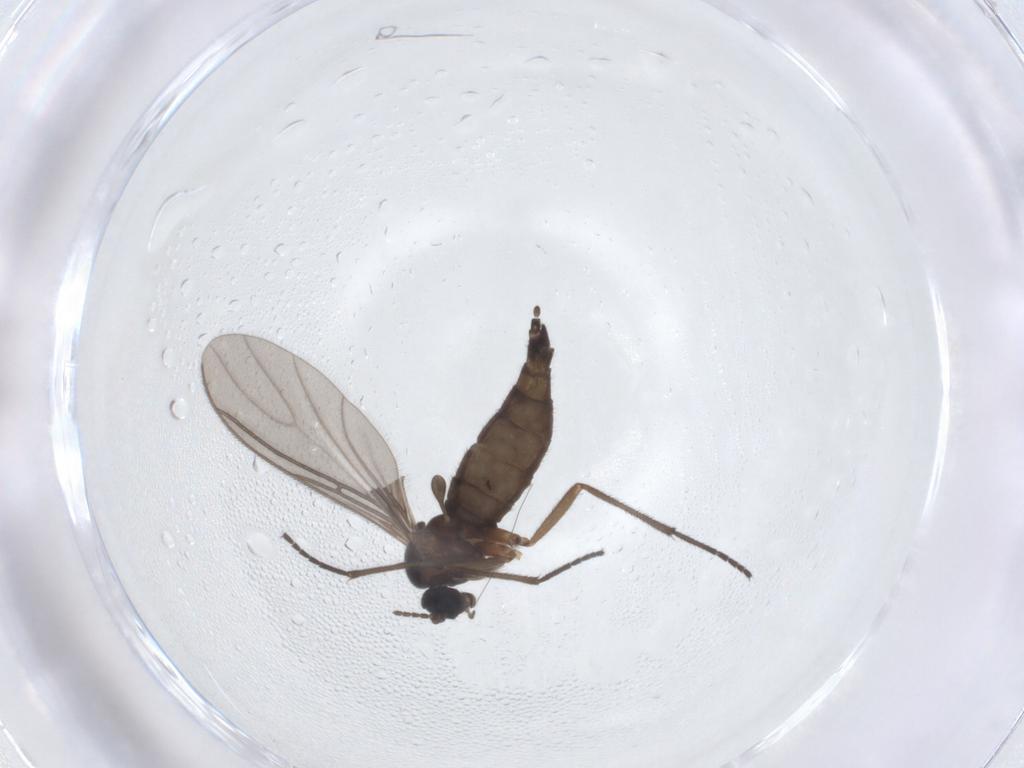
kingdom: Animalia
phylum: Arthropoda
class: Insecta
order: Diptera
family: Sciaridae
